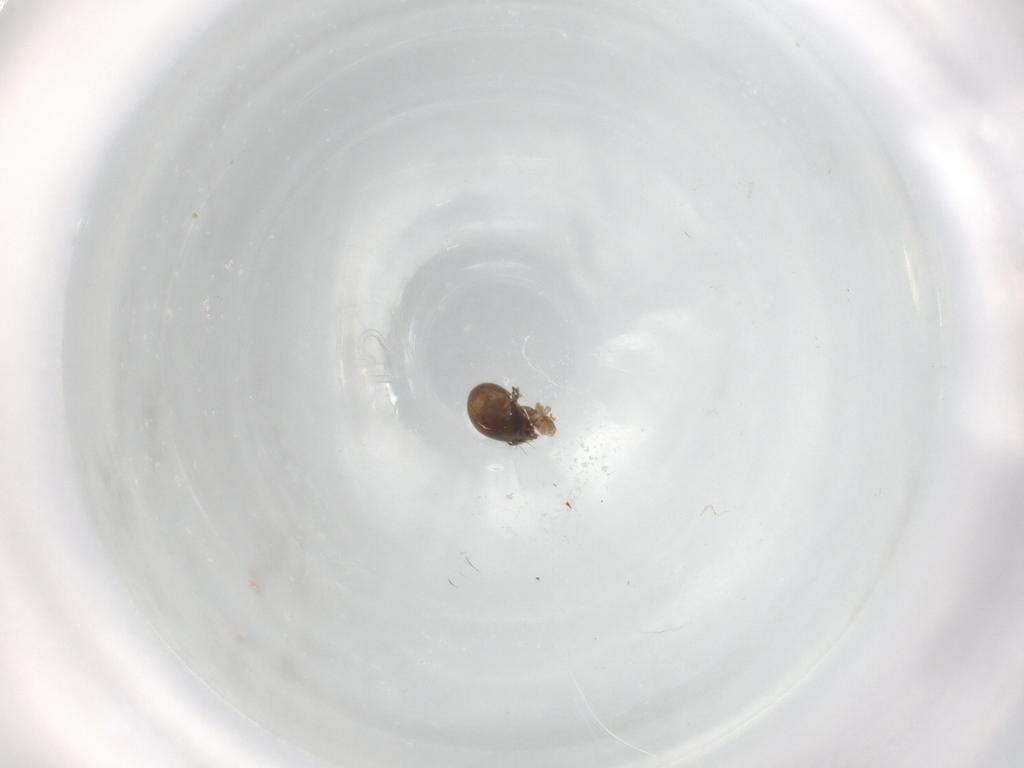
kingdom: Animalia
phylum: Arthropoda
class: Arachnida
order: Sarcoptiformes
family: Humerobatidae
